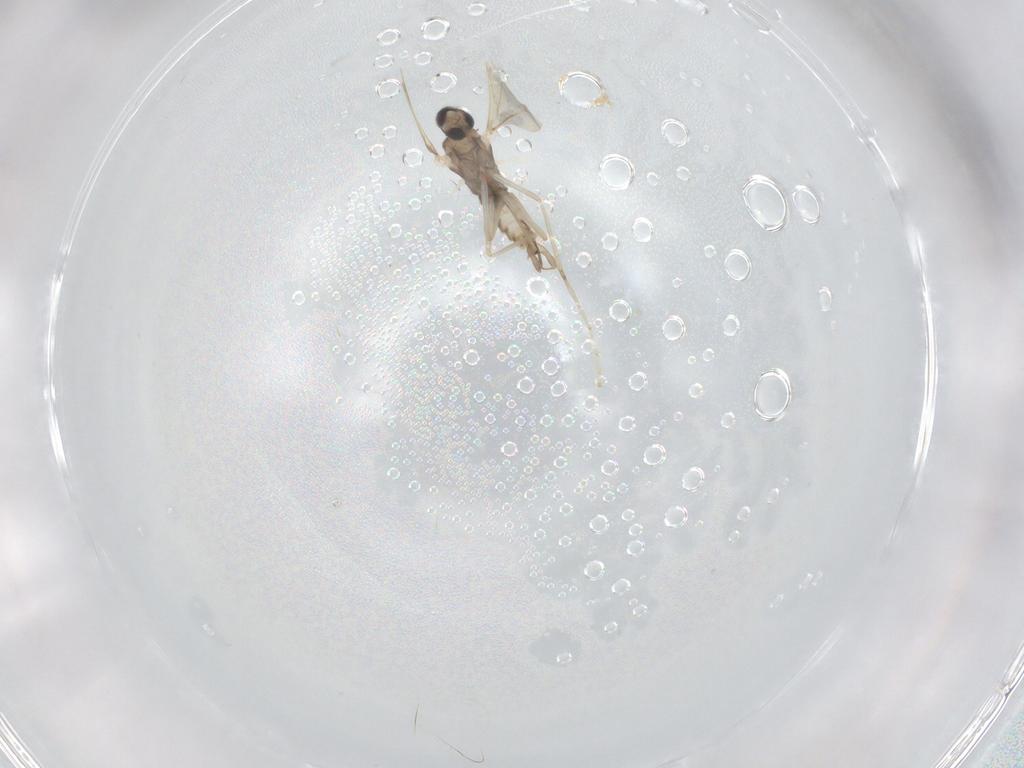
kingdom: Animalia
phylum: Arthropoda
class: Insecta
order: Diptera
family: Cecidomyiidae
